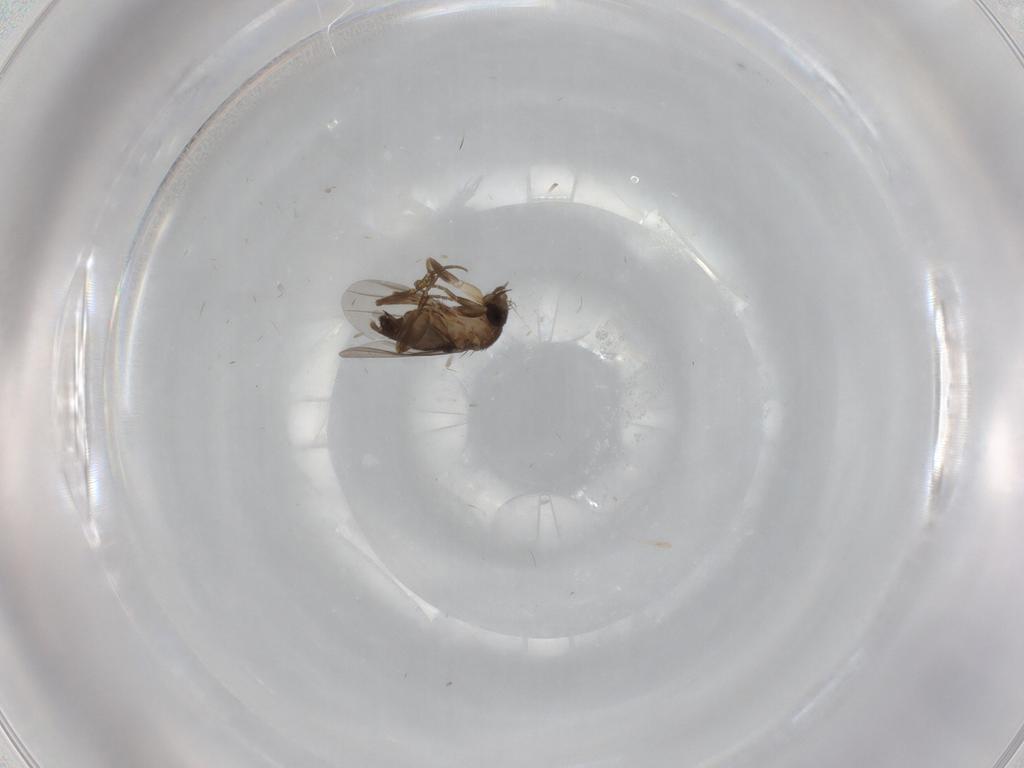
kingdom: Animalia
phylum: Arthropoda
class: Insecta
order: Diptera
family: Phoridae
